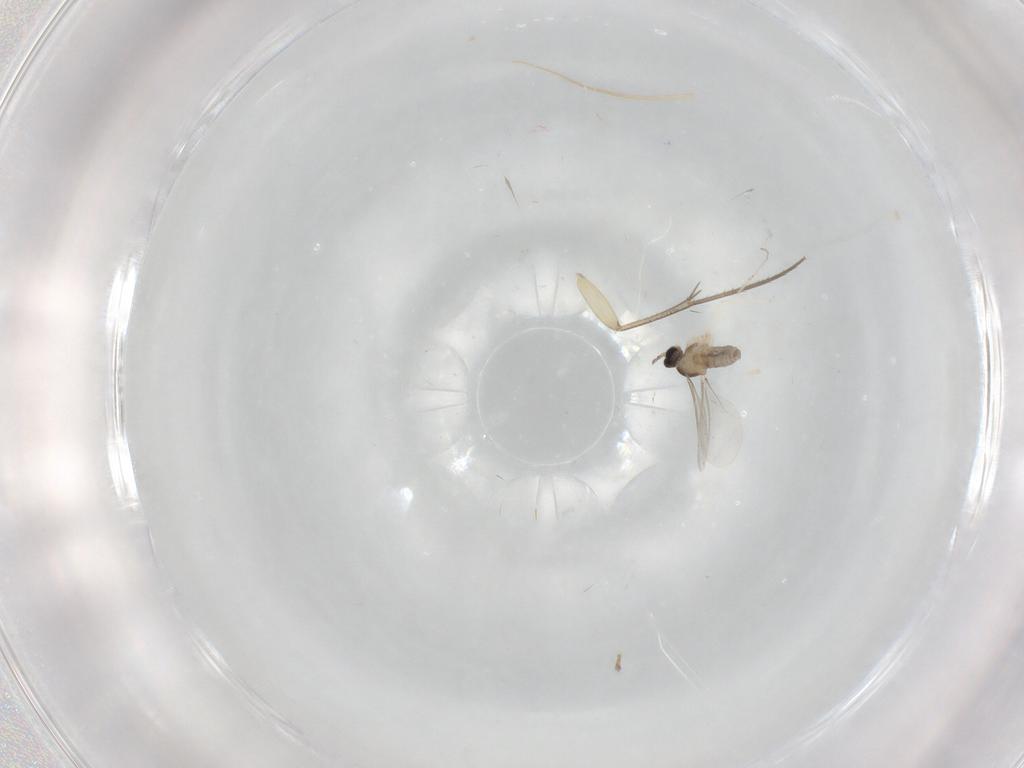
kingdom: Animalia
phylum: Arthropoda
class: Insecta
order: Diptera
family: Mycetophilidae
